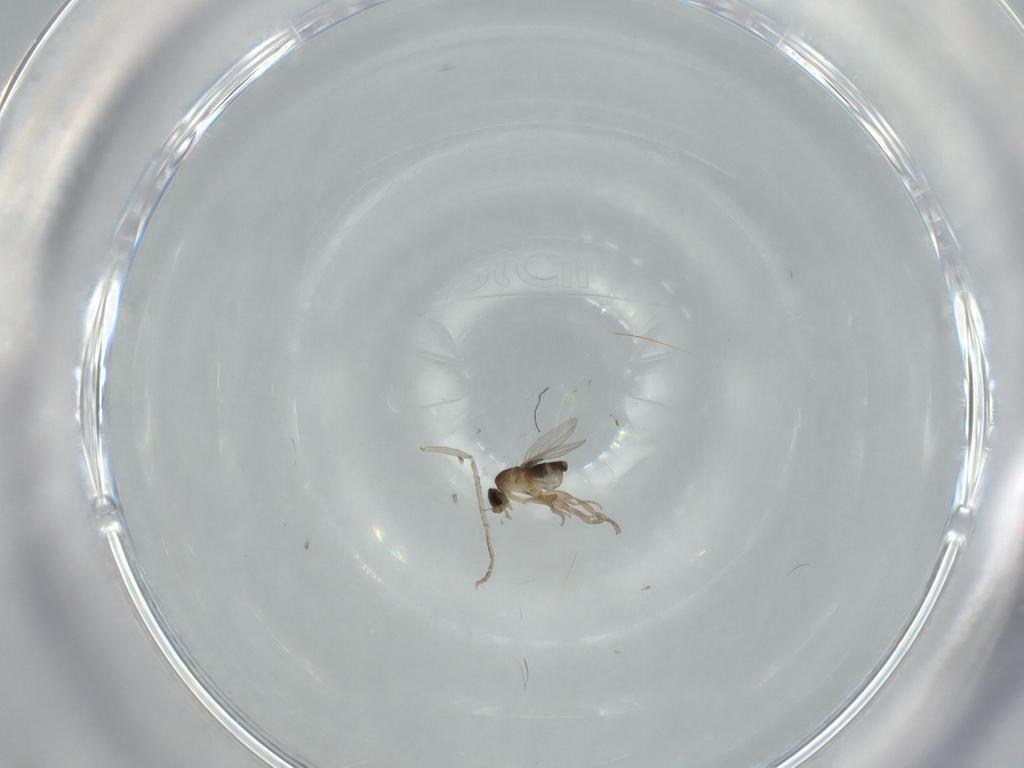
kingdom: Animalia
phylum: Arthropoda
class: Insecta
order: Diptera
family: Phoridae
